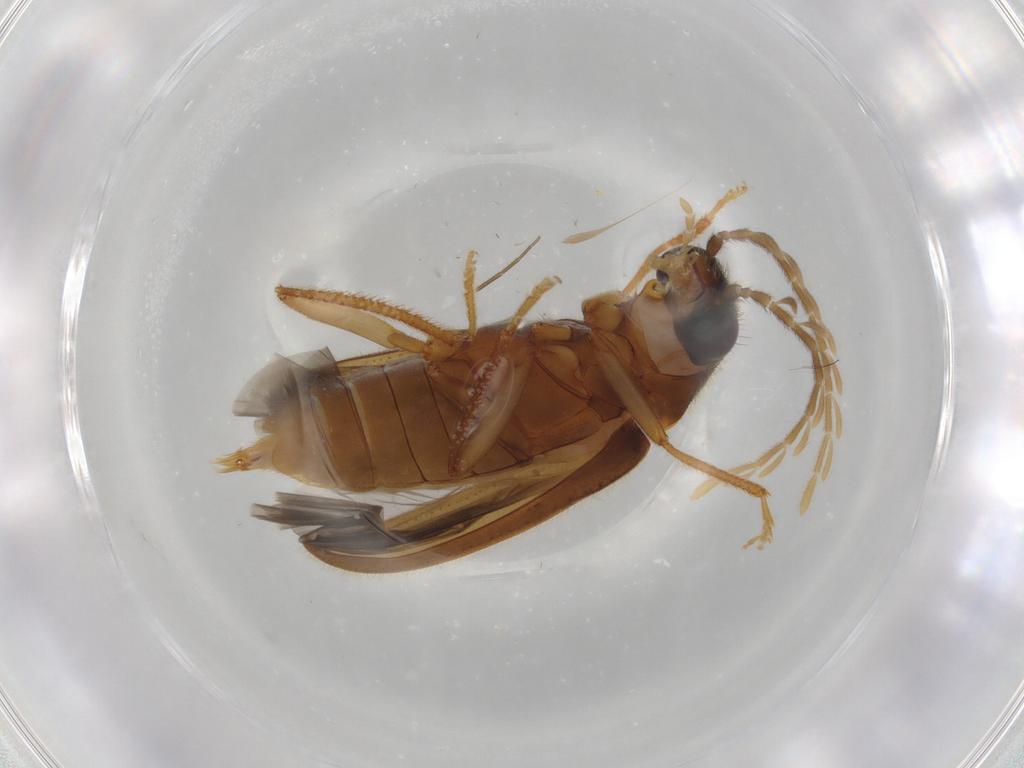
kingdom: Animalia
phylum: Arthropoda
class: Insecta
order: Coleoptera
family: Ptilodactylidae
